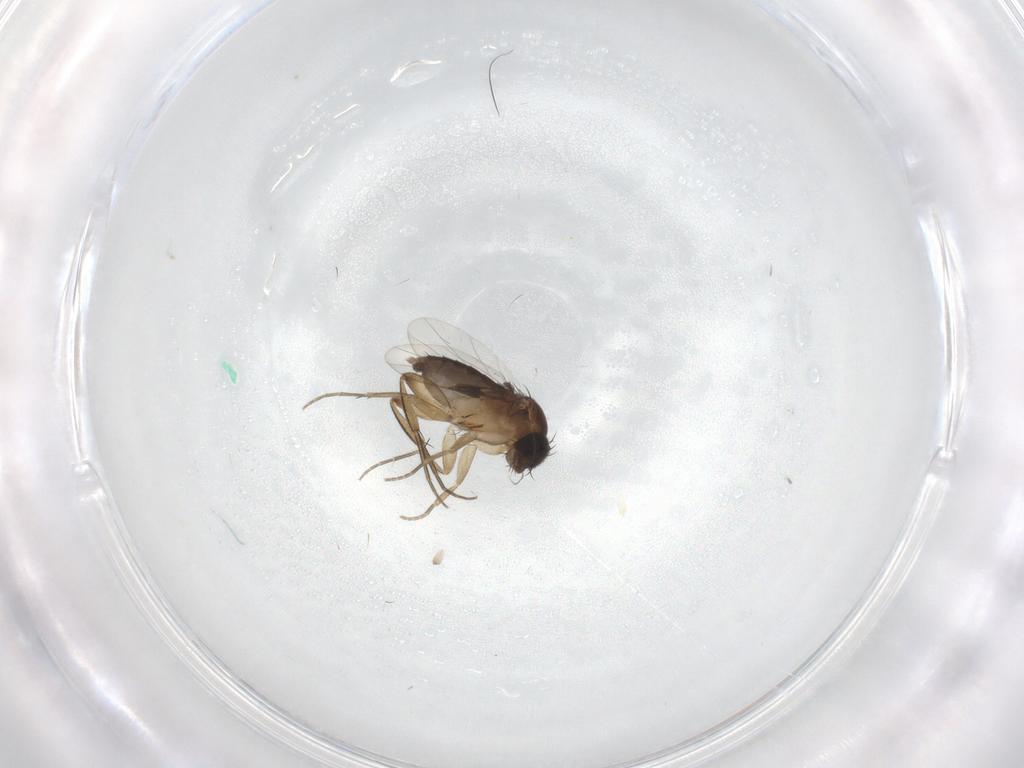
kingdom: Animalia
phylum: Arthropoda
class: Insecta
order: Diptera
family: Phoridae
